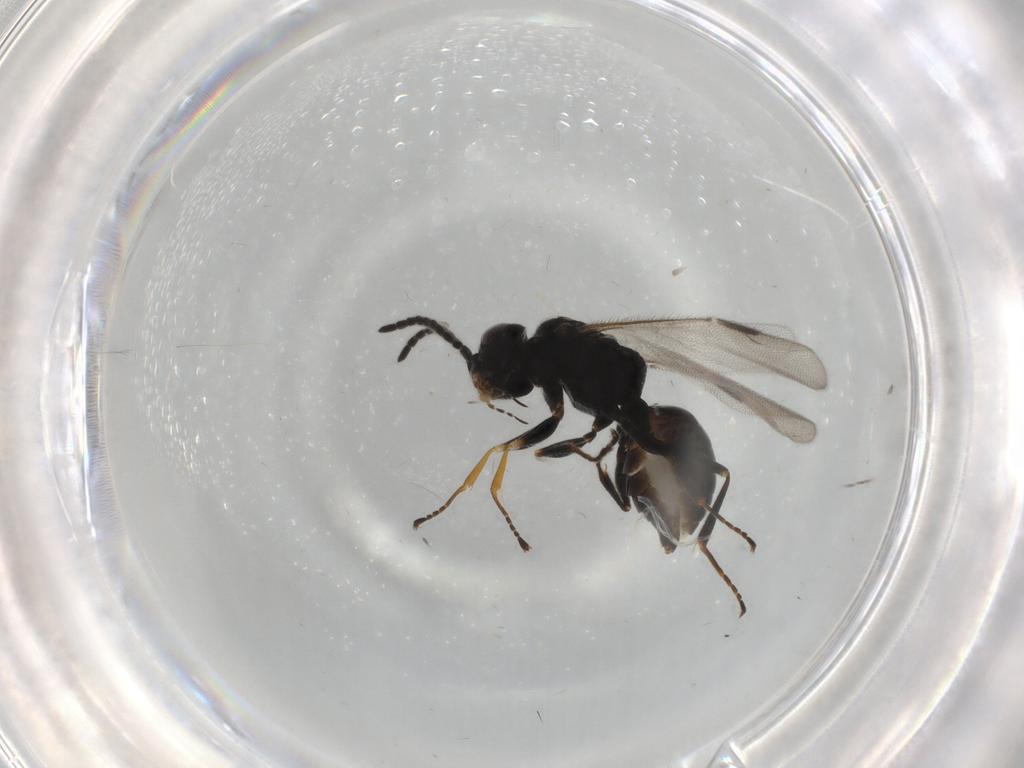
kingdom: Animalia
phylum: Arthropoda
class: Insecta
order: Hymenoptera
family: Dryinidae
